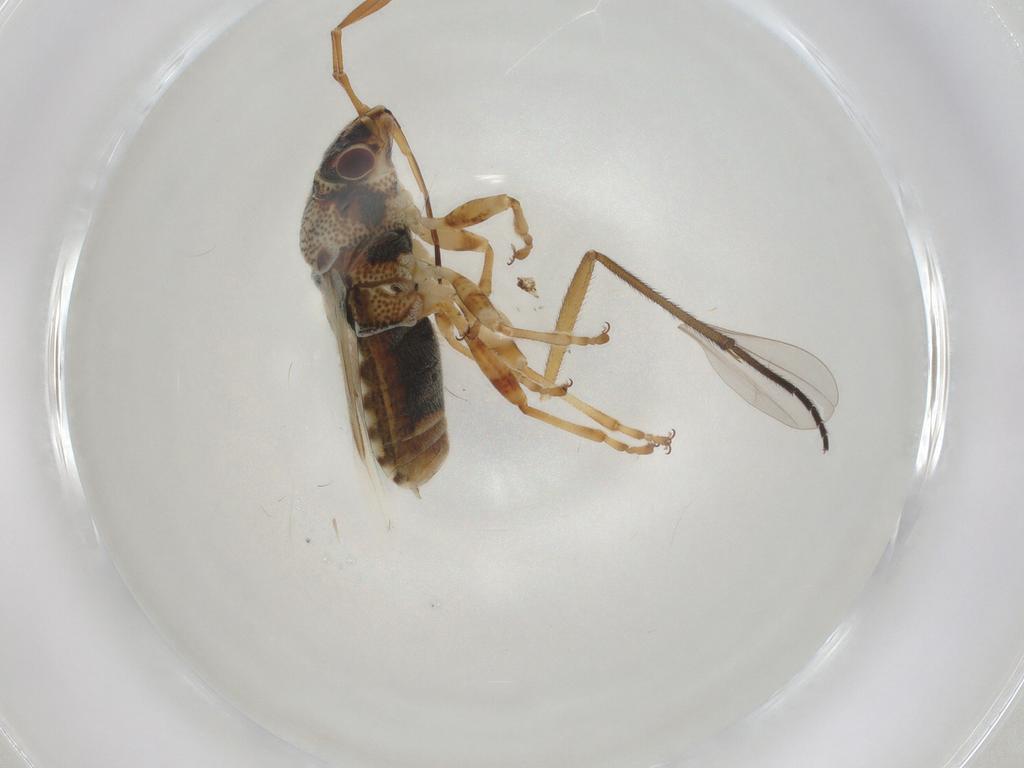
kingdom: Animalia
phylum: Arthropoda
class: Insecta
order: Hemiptera
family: Lygaeidae
